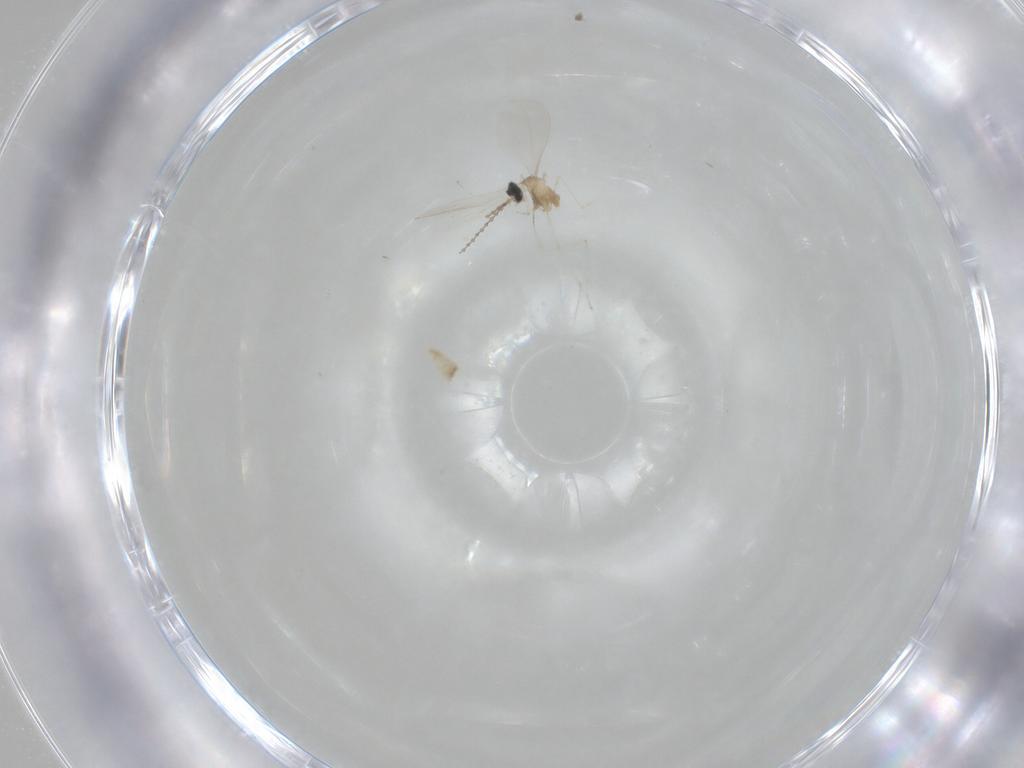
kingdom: Animalia
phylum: Arthropoda
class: Insecta
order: Diptera
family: Cecidomyiidae
